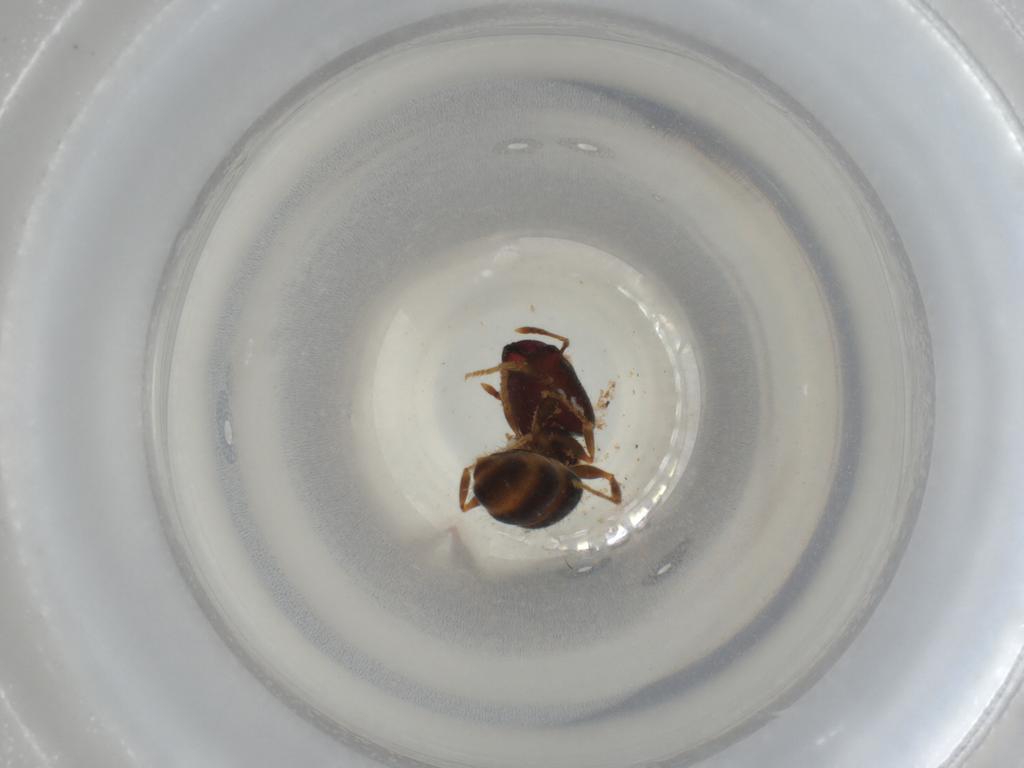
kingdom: Animalia
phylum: Arthropoda
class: Insecta
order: Hymenoptera
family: Formicidae
